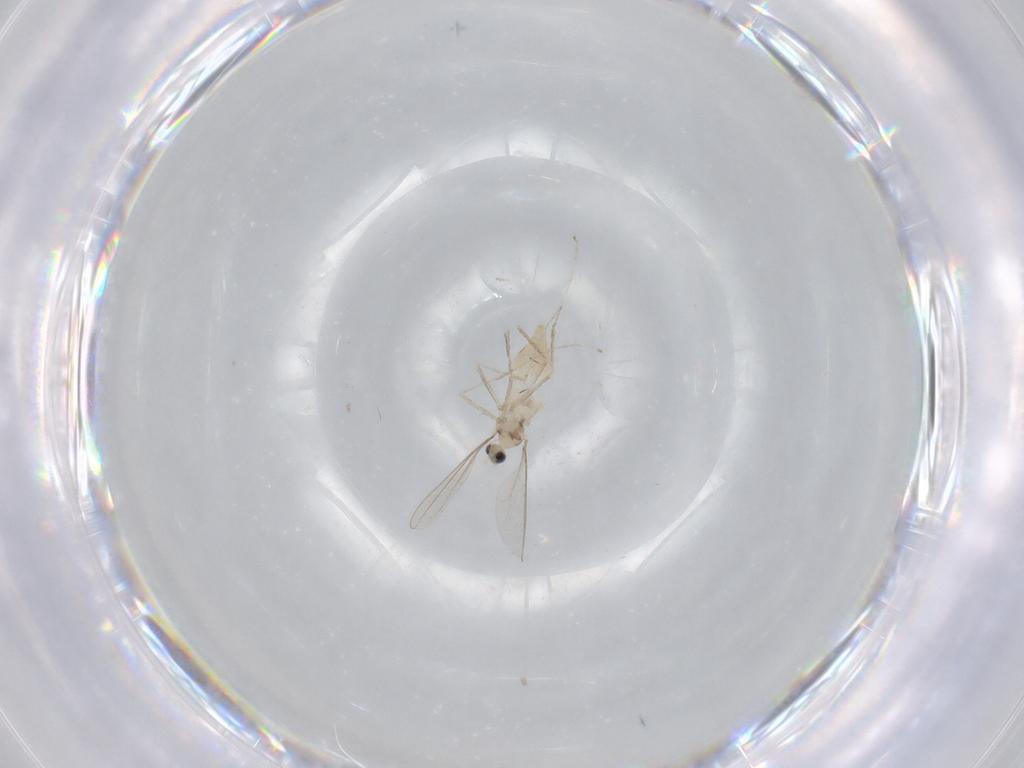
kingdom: Animalia
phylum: Arthropoda
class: Insecta
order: Diptera
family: Cecidomyiidae
